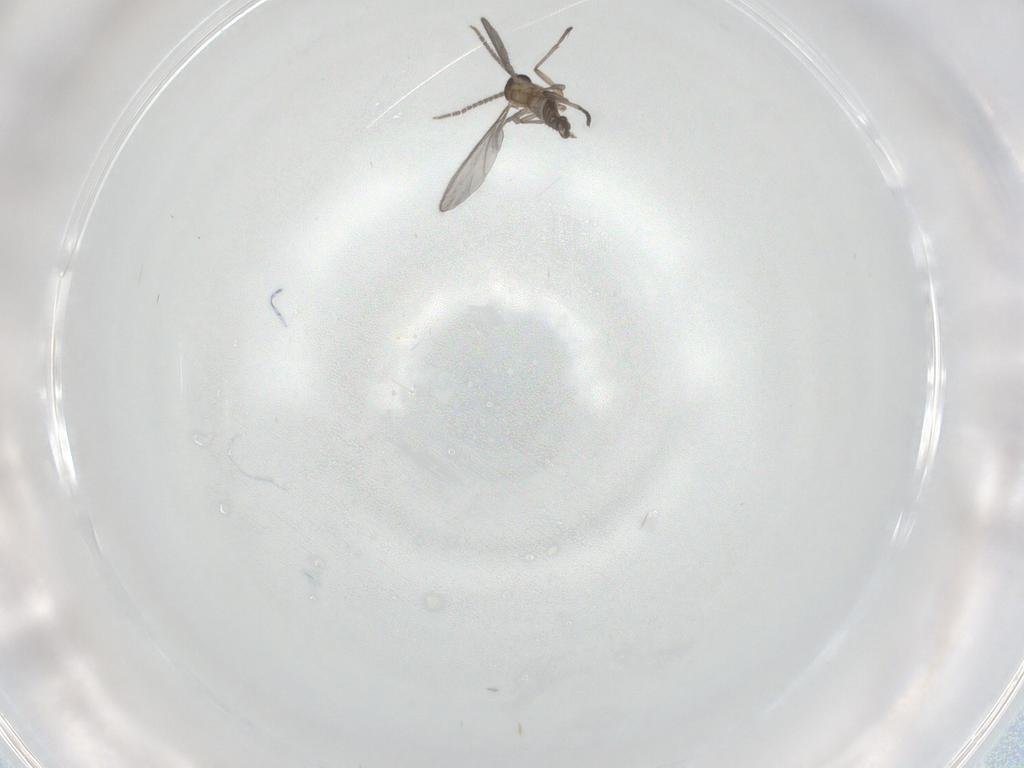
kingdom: Animalia
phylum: Arthropoda
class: Insecta
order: Diptera
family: Sciaridae
